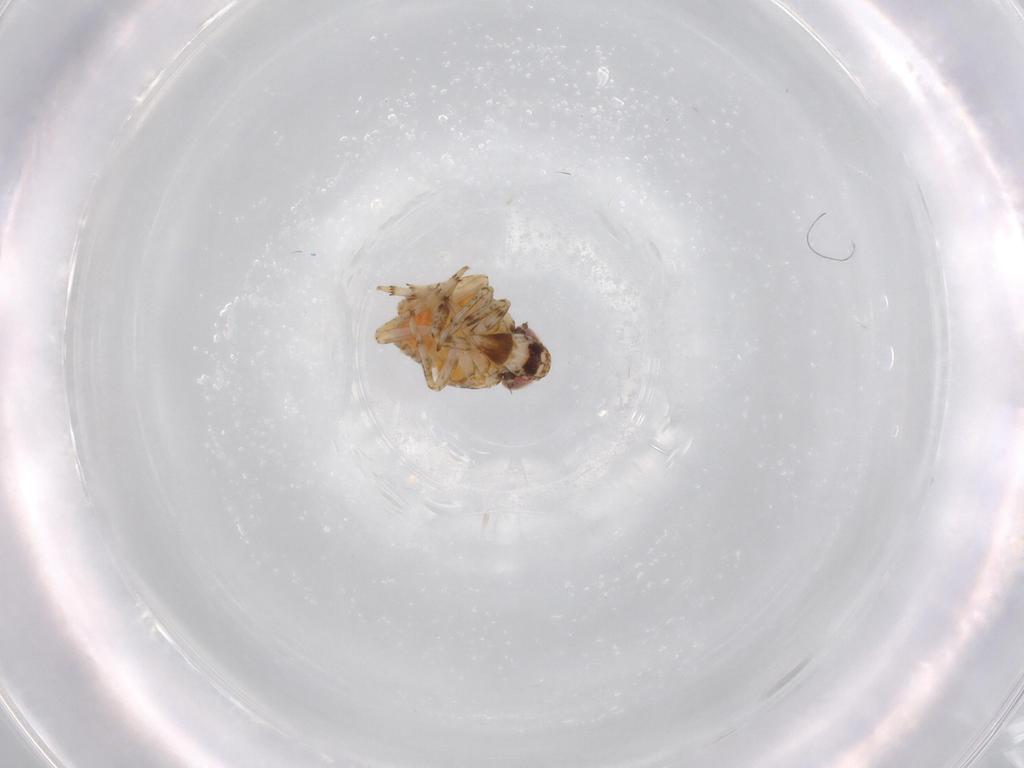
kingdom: Animalia
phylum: Arthropoda
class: Insecta
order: Hemiptera
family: Issidae
